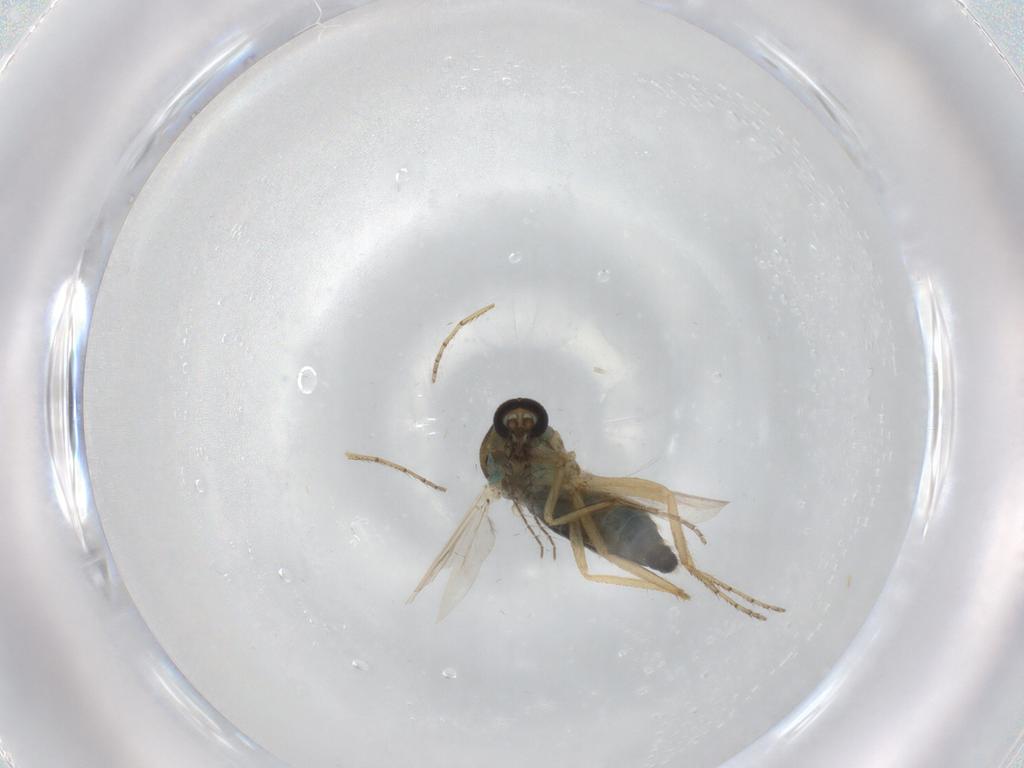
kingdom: Animalia
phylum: Arthropoda
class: Insecta
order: Diptera
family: Ceratopogonidae
